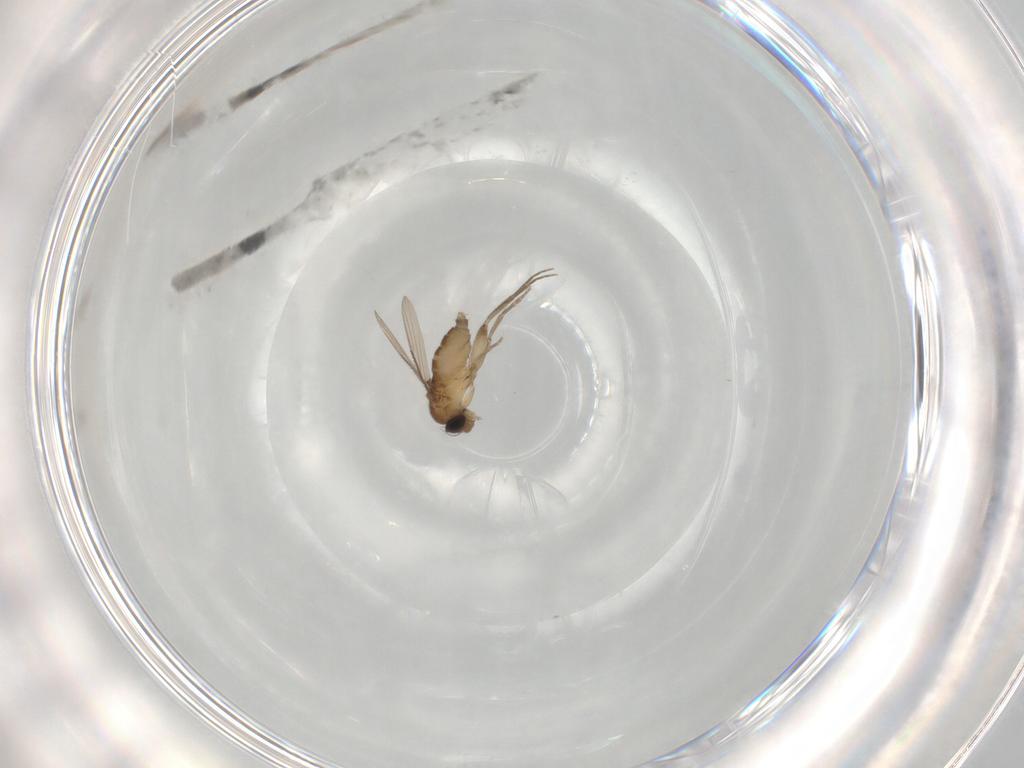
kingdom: Animalia
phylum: Arthropoda
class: Insecta
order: Diptera
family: Phoridae
